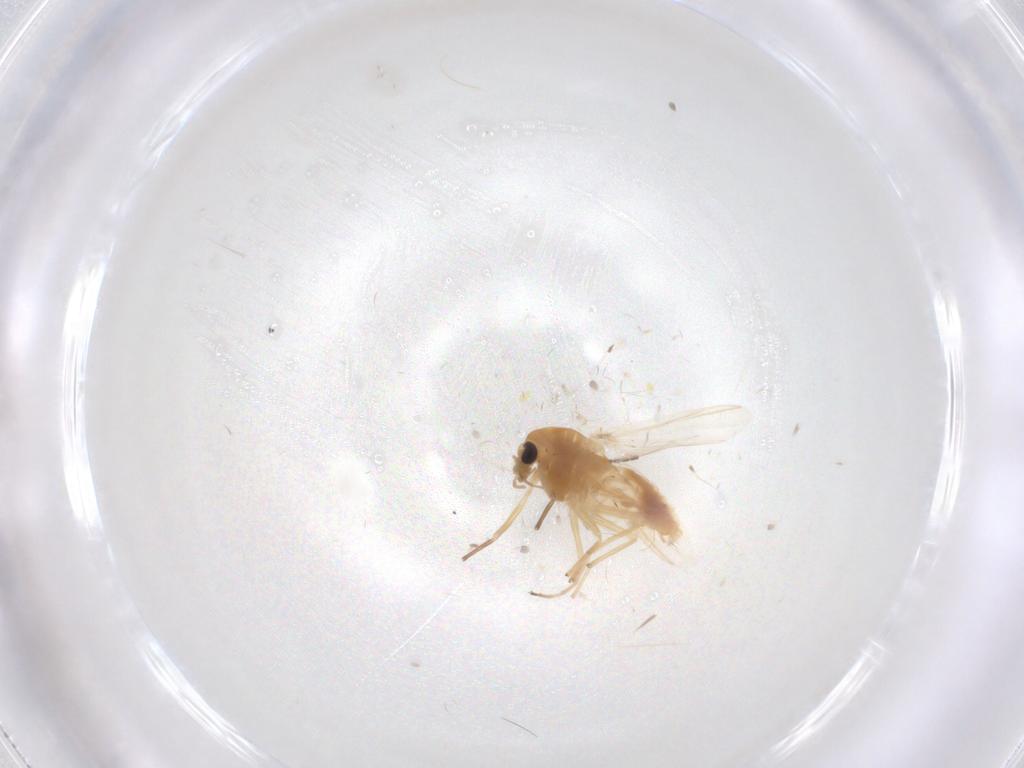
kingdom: Animalia
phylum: Arthropoda
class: Insecta
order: Diptera
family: Chironomidae
